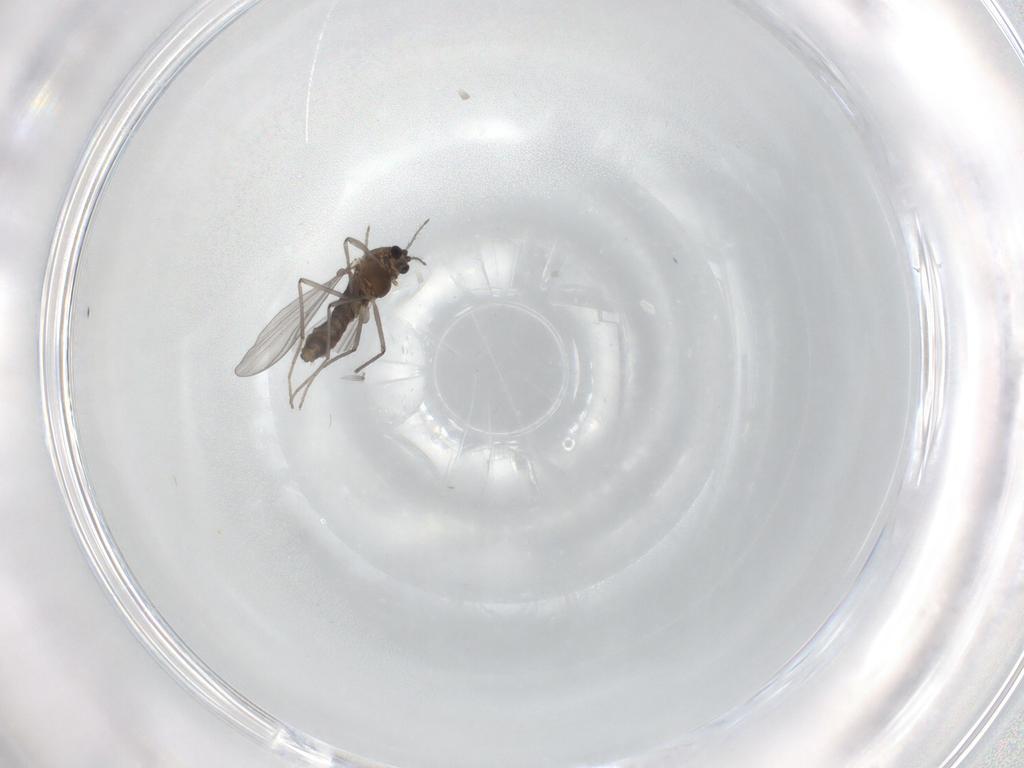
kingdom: Animalia
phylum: Arthropoda
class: Insecta
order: Diptera
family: Chironomidae
